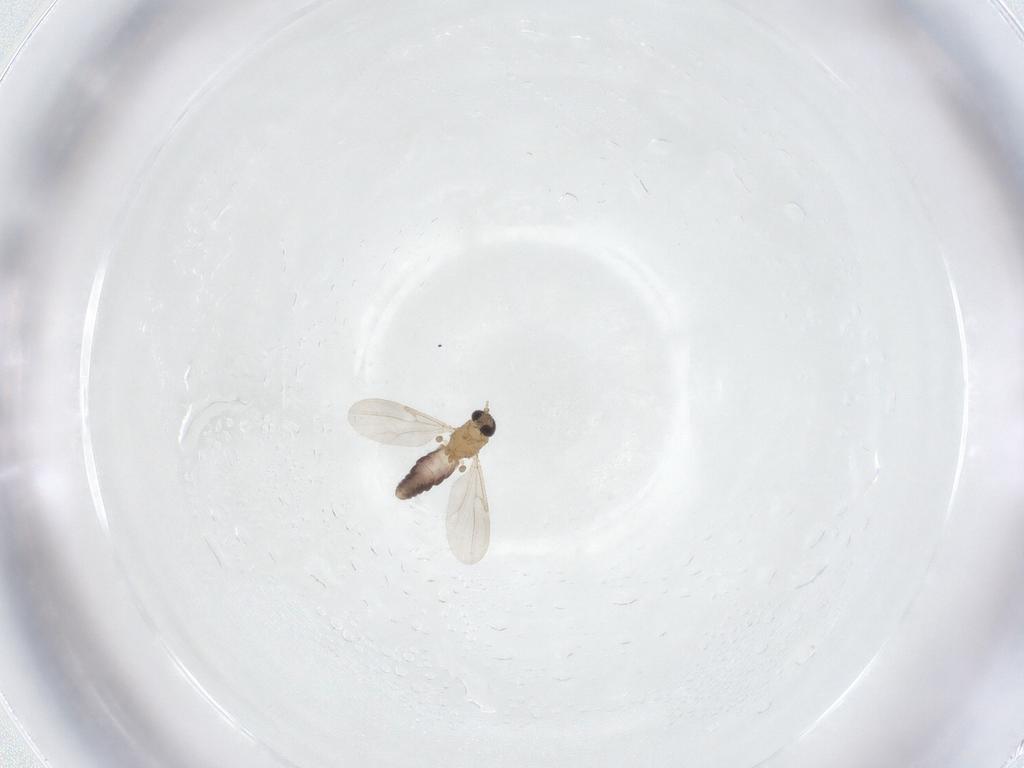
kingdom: Animalia
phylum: Arthropoda
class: Insecta
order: Diptera
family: Ceratopogonidae
